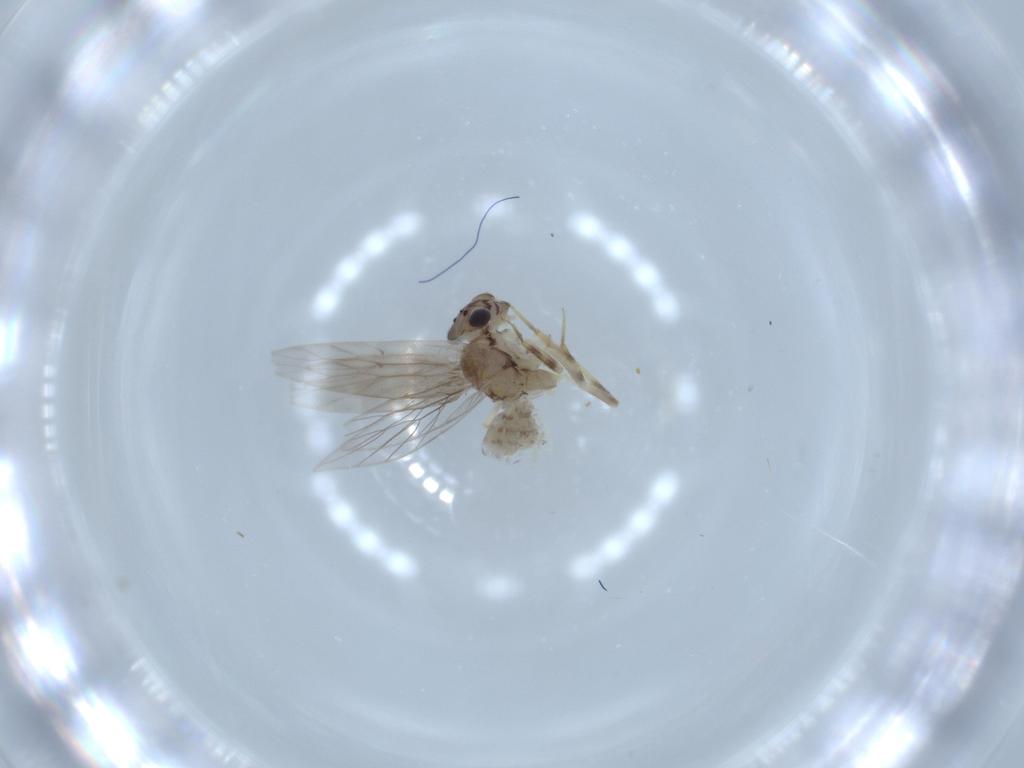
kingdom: Animalia
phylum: Arthropoda
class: Insecta
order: Psocodea
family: Lepidopsocidae
